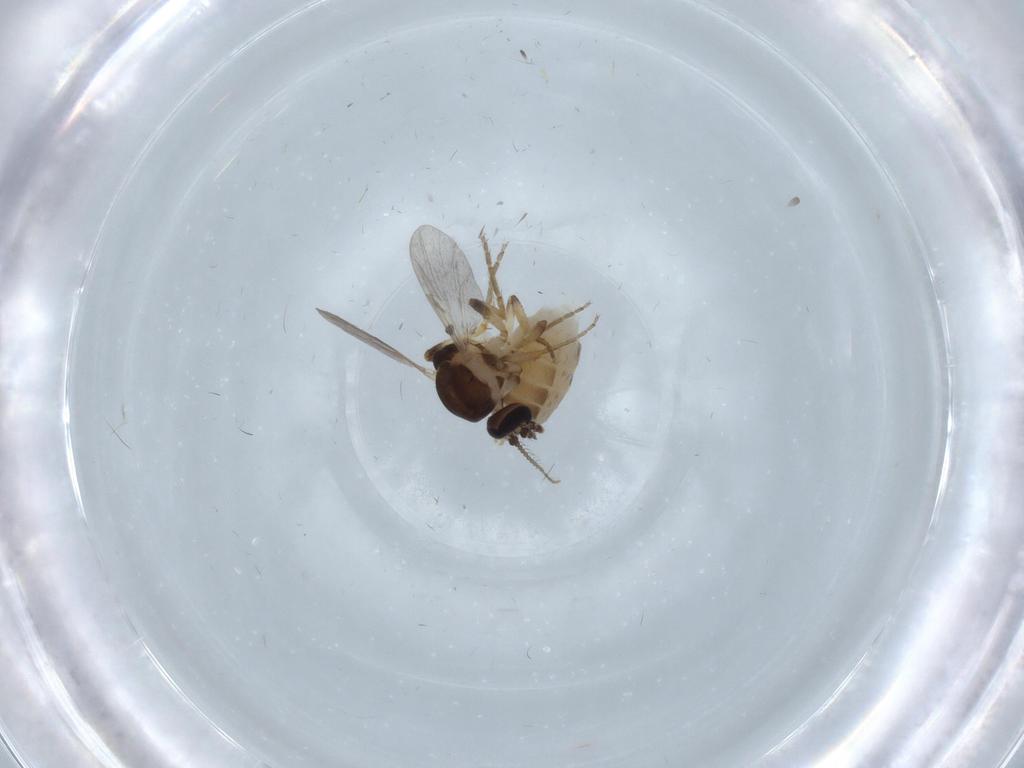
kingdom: Animalia
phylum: Arthropoda
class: Insecta
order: Diptera
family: Ceratopogonidae
